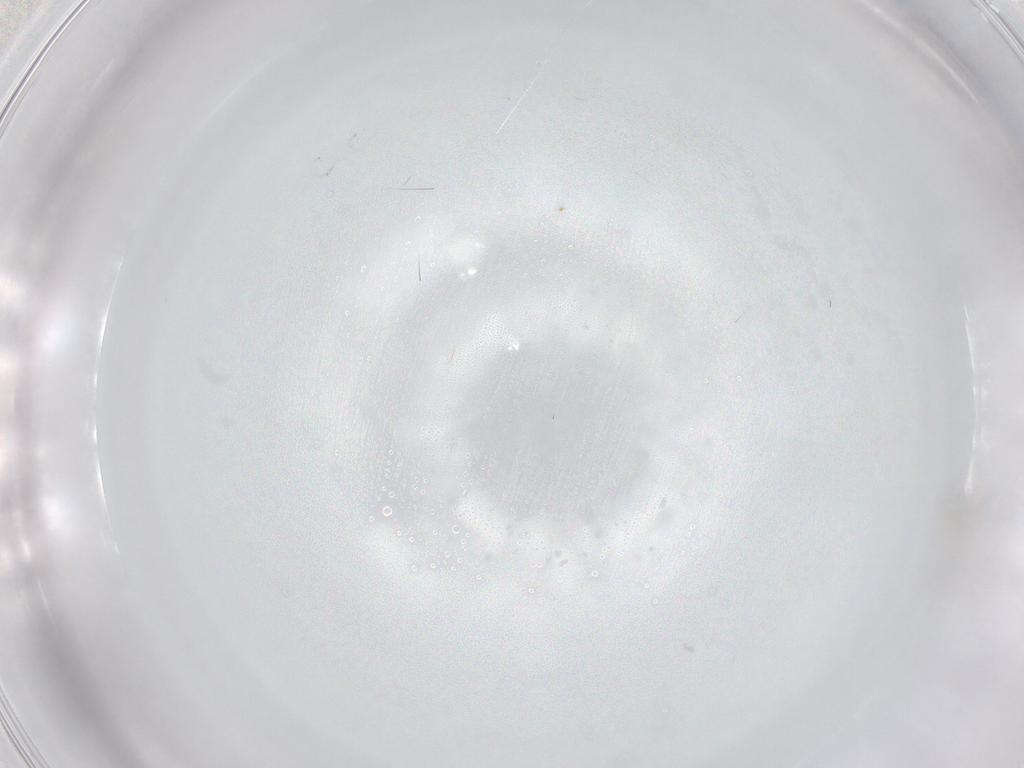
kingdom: Animalia
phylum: Arthropoda
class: Collembola
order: Entomobryomorpha
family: Entomobryidae
